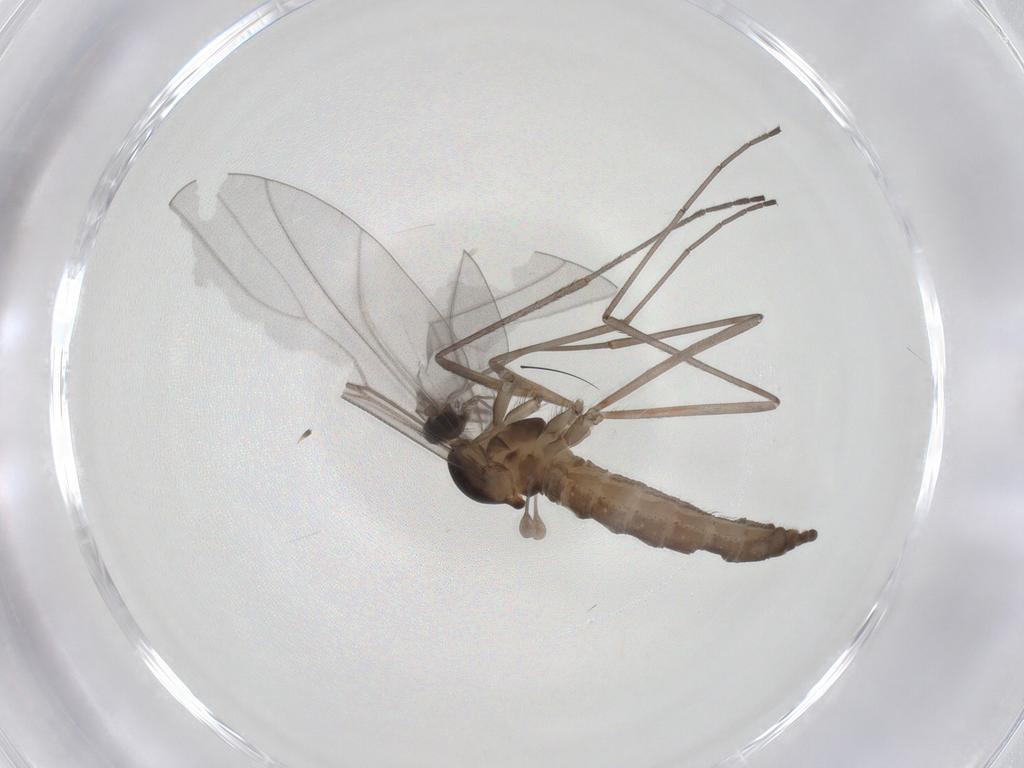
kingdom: Animalia
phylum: Arthropoda
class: Insecta
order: Diptera
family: Cecidomyiidae
